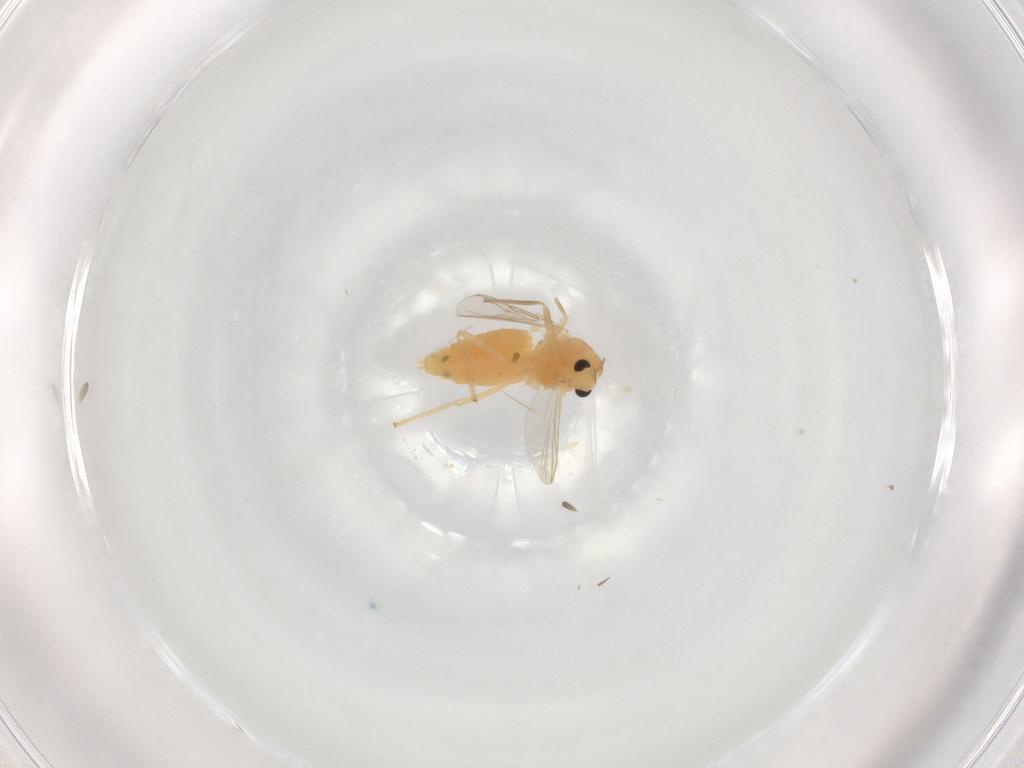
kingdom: Animalia
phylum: Arthropoda
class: Insecta
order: Diptera
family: Chironomidae
